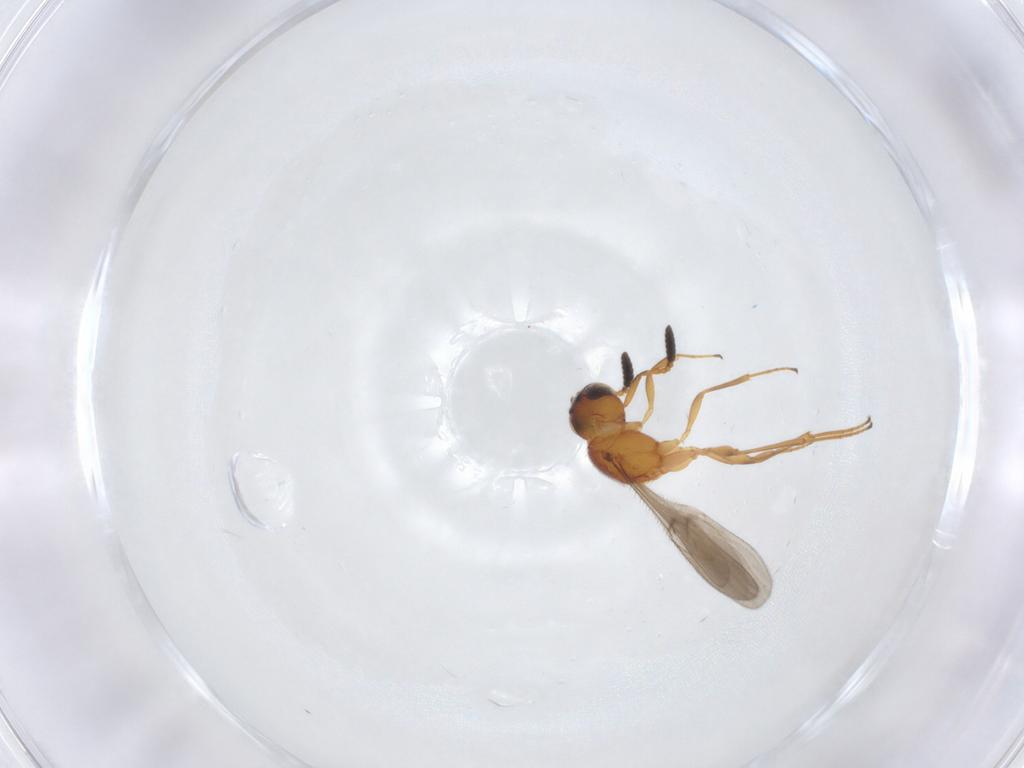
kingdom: Animalia
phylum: Arthropoda
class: Insecta
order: Hymenoptera
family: Scelionidae
